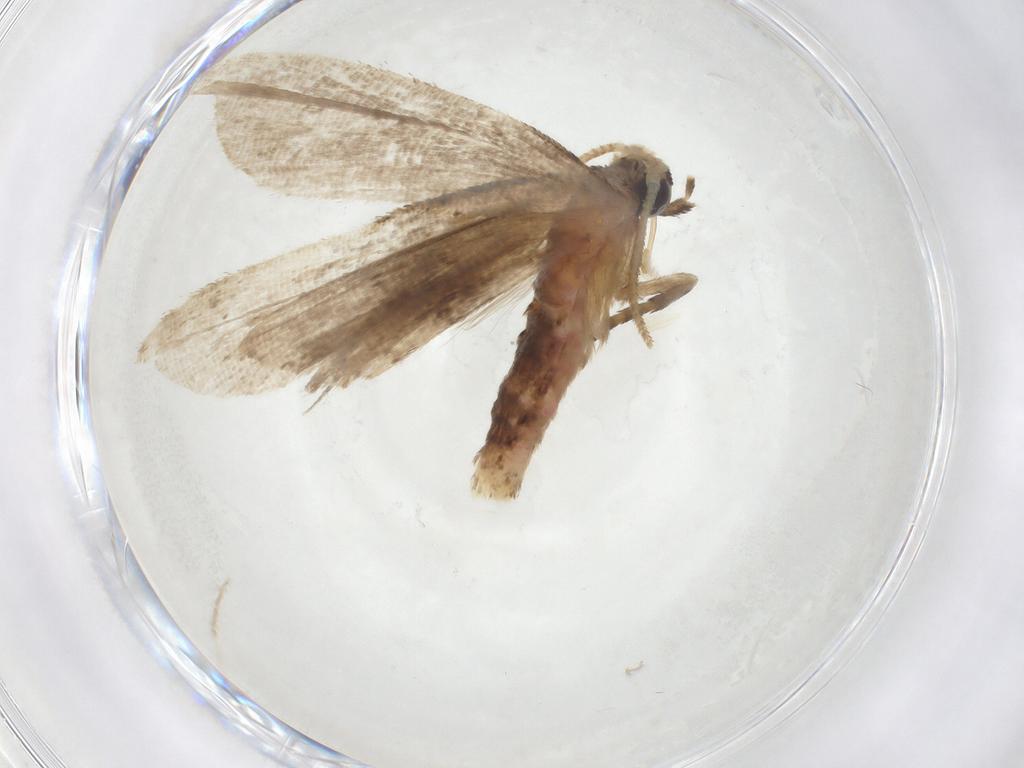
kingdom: Animalia
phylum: Arthropoda
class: Insecta
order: Lepidoptera
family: Erebidae
